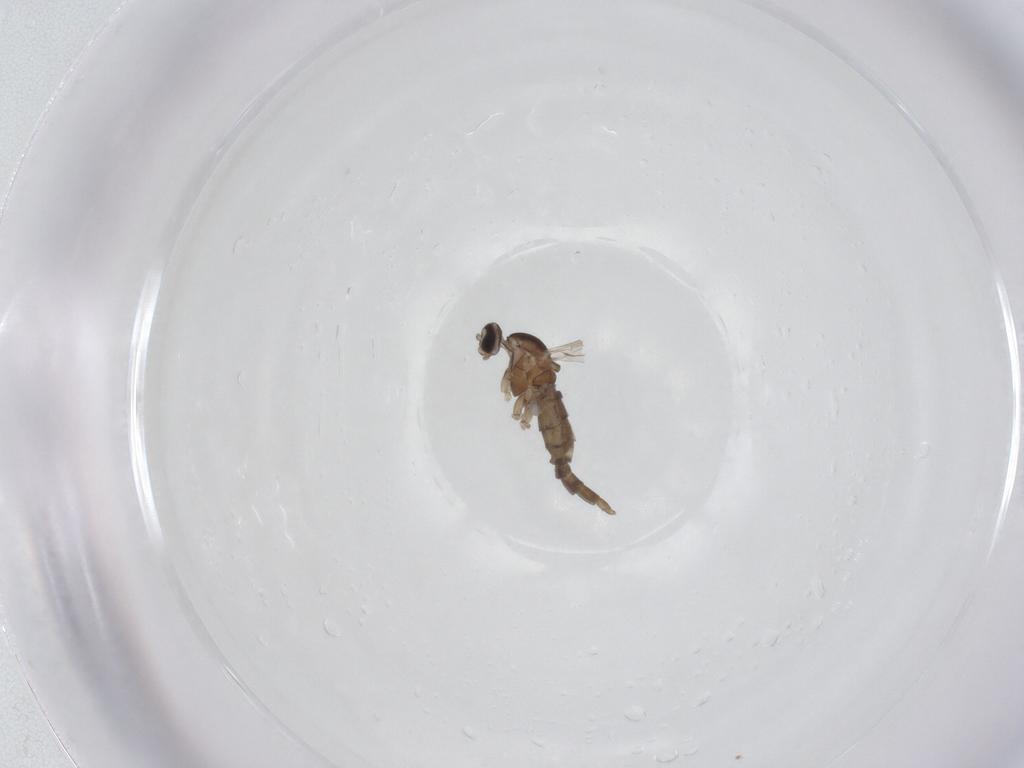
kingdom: Animalia
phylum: Arthropoda
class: Insecta
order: Diptera
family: Cecidomyiidae
